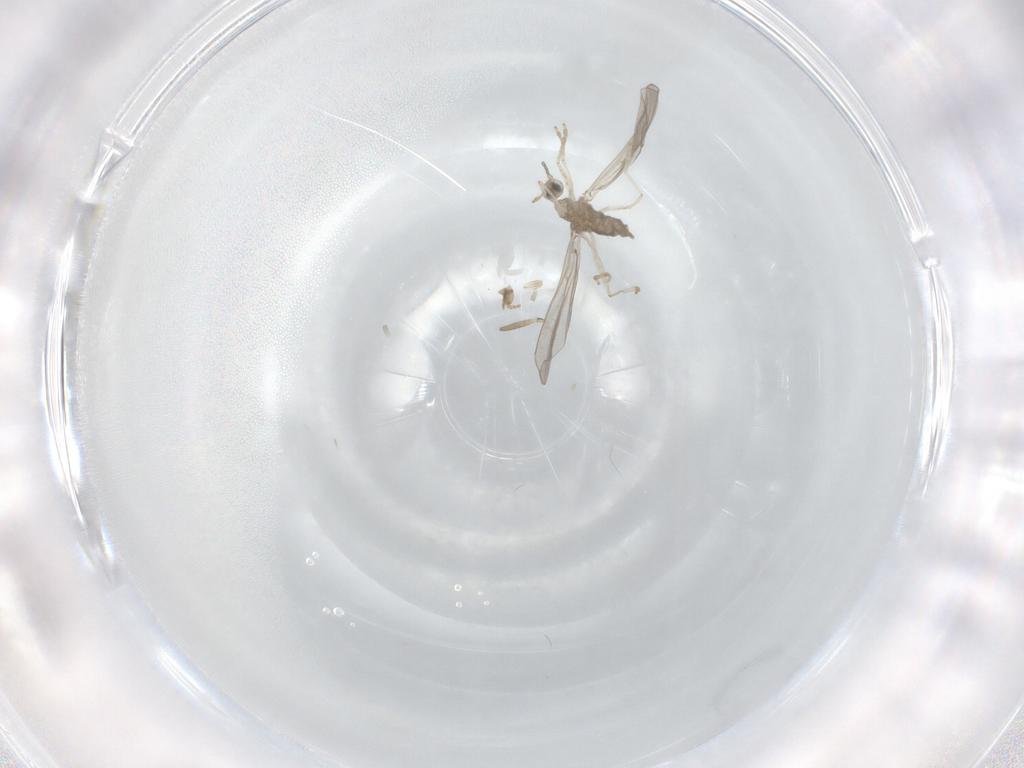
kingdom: Animalia
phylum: Arthropoda
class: Insecta
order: Diptera
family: Cecidomyiidae
